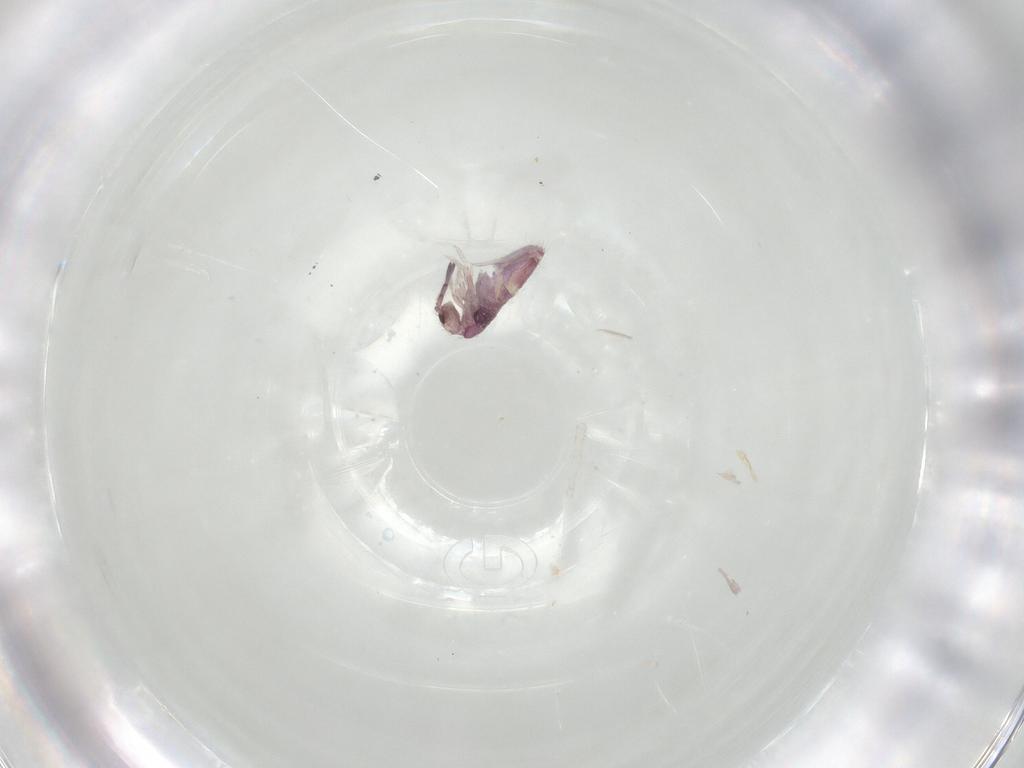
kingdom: Animalia
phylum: Arthropoda
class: Collembola
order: Entomobryomorpha
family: Entomobryidae
